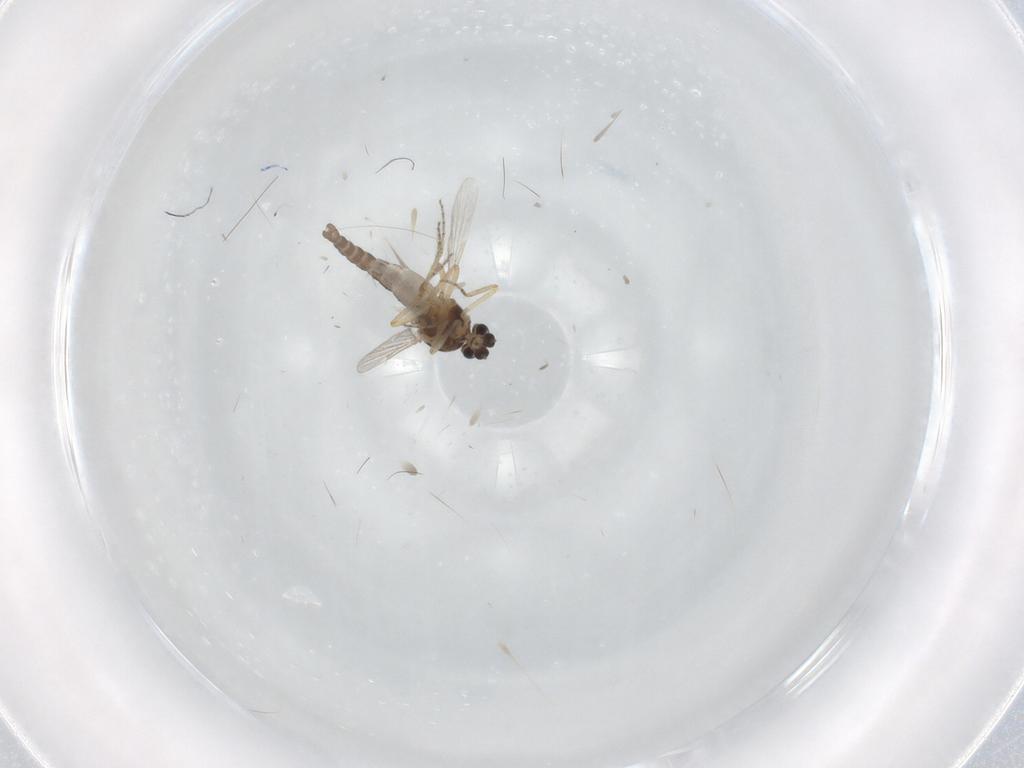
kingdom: Animalia
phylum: Arthropoda
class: Insecta
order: Diptera
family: Ceratopogonidae
